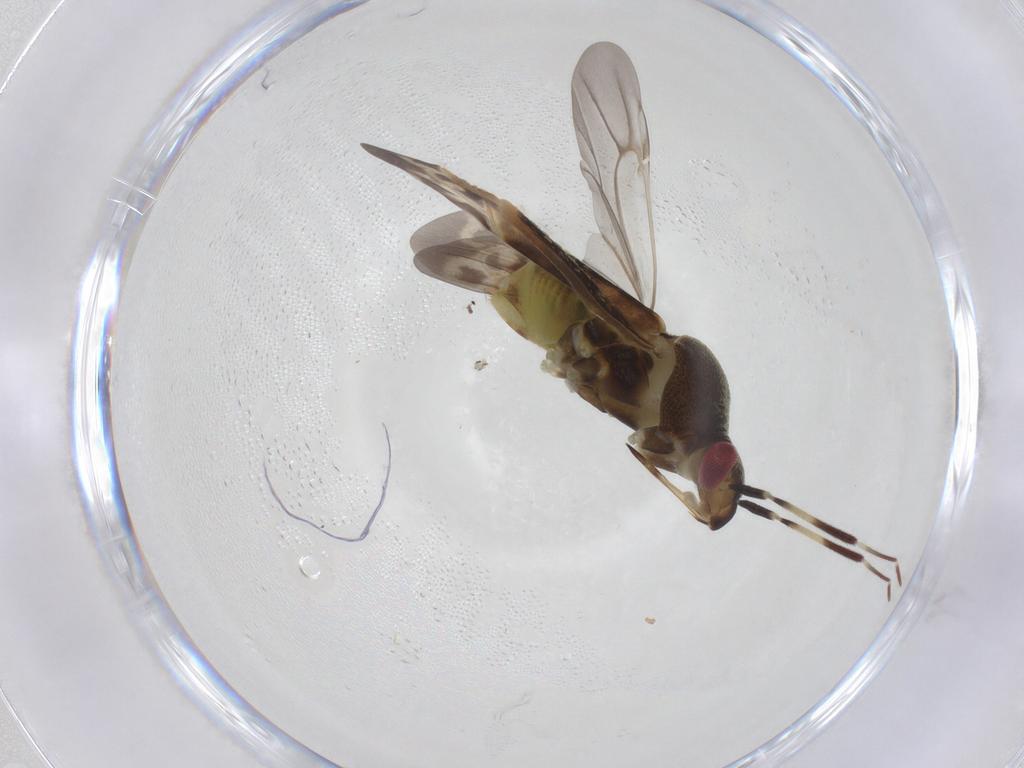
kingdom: Animalia
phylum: Arthropoda
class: Insecta
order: Hemiptera
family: Miridae
